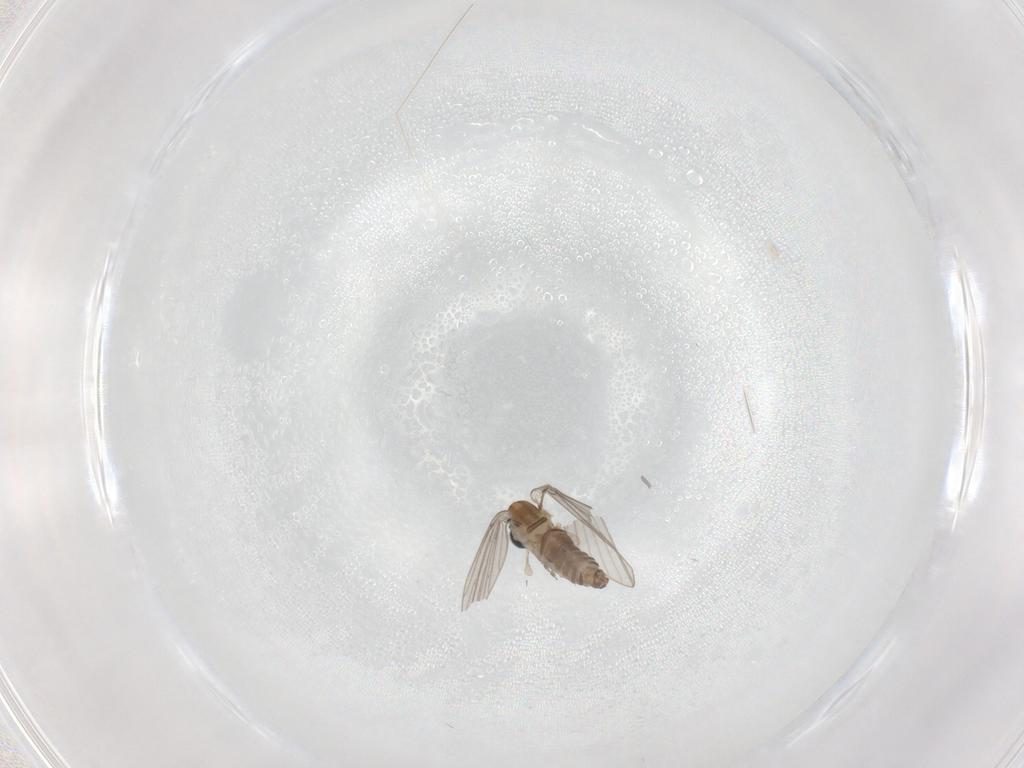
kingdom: Animalia
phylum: Arthropoda
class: Insecta
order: Diptera
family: Psychodidae
